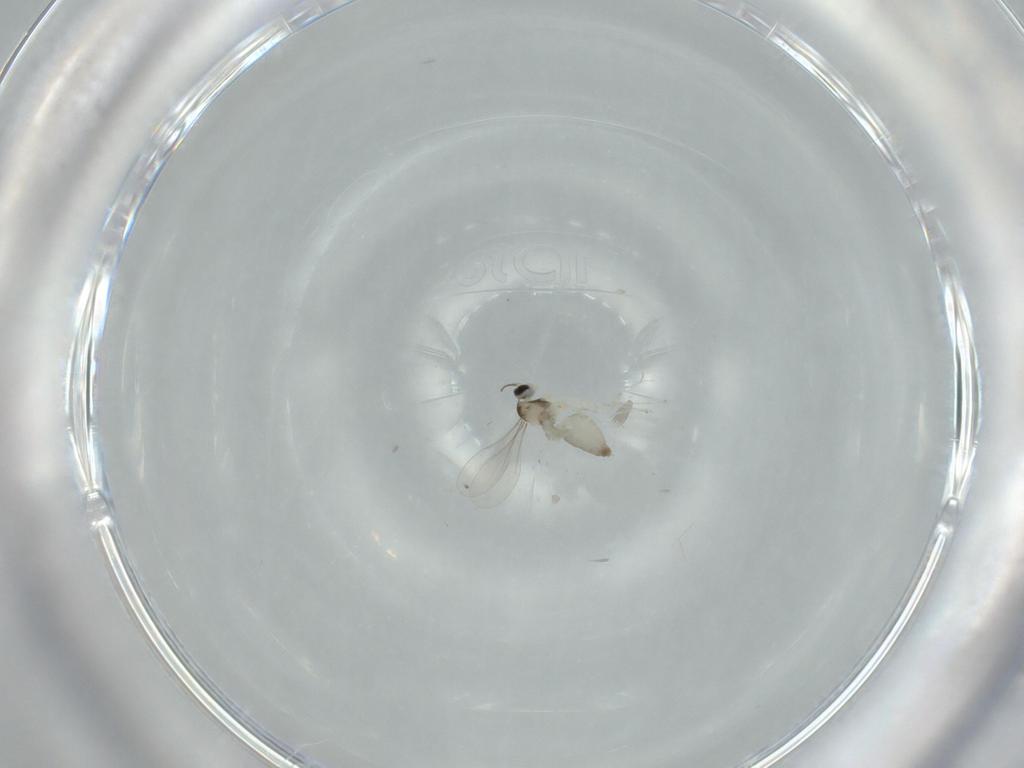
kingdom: Animalia
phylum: Arthropoda
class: Insecta
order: Diptera
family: Cecidomyiidae
